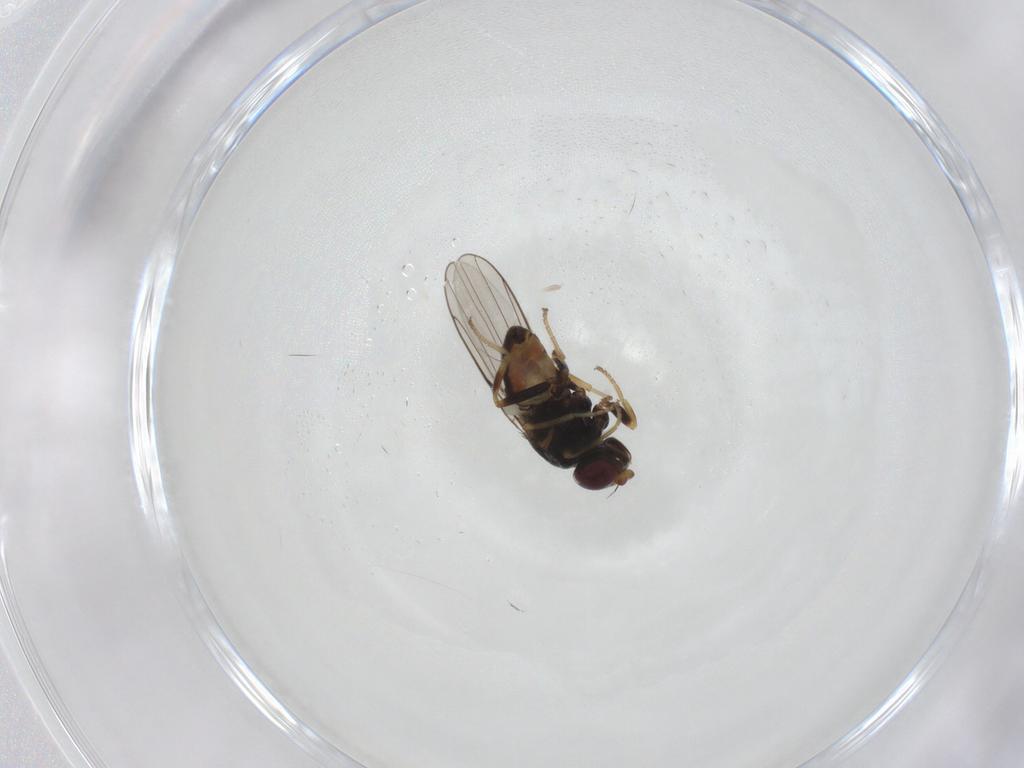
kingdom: Animalia
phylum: Arthropoda
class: Insecta
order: Diptera
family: Chloropidae
